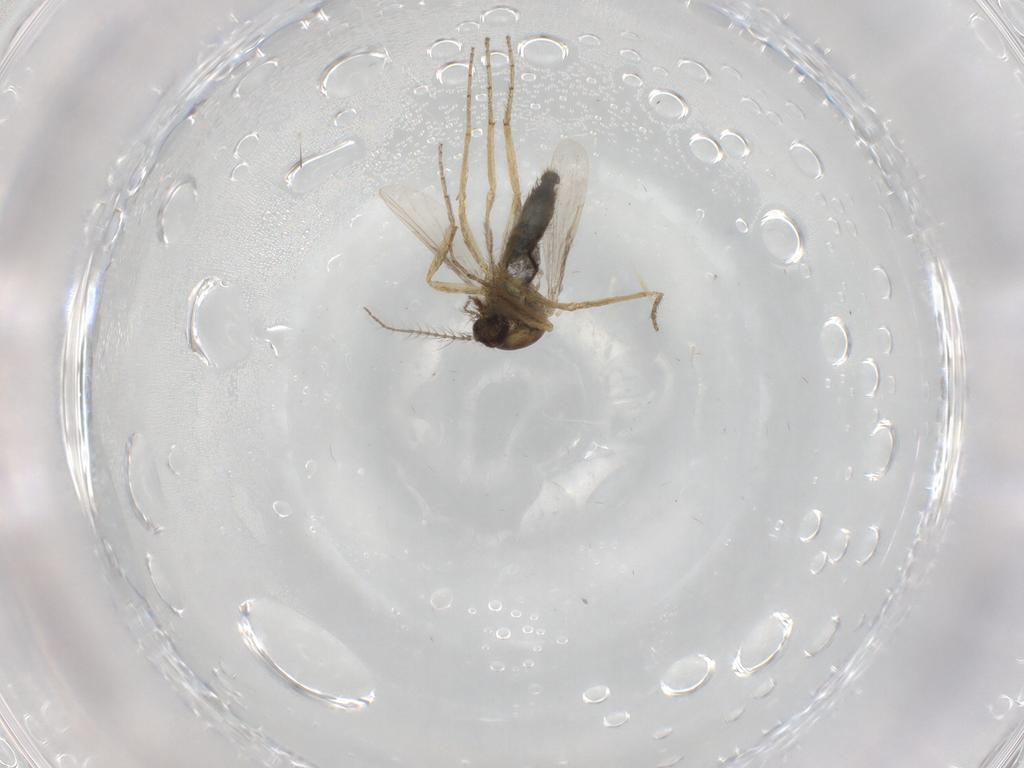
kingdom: Animalia
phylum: Arthropoda
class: Insecta
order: Diptera
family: Ceratopogonidae
